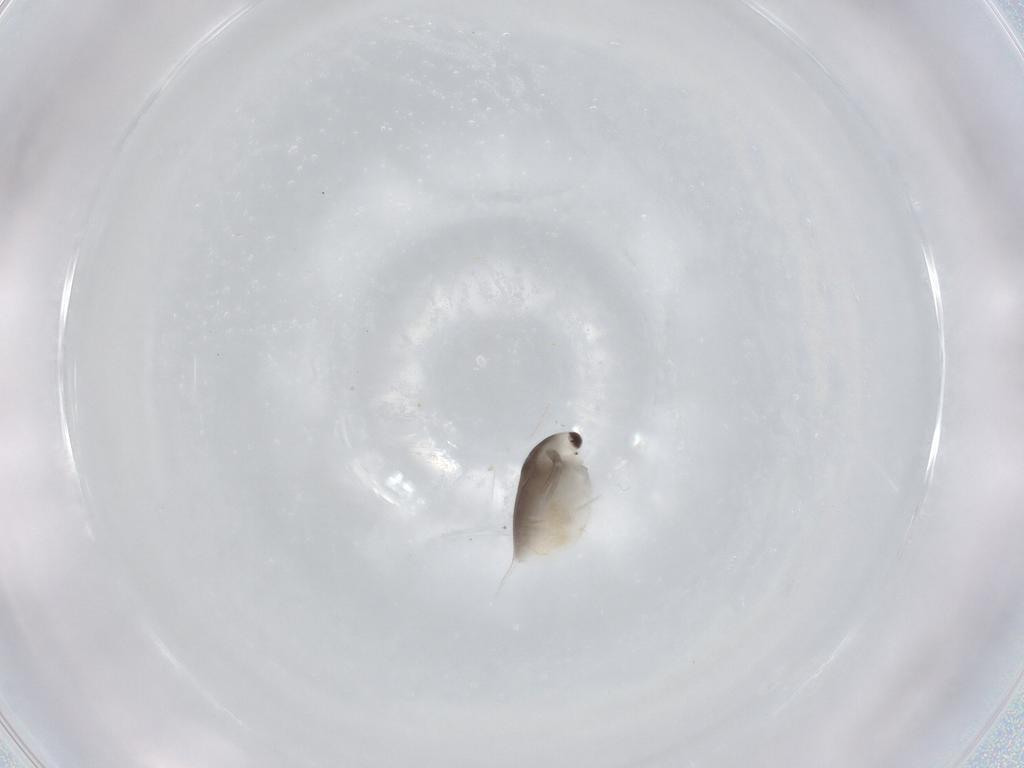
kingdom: Animalia
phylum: Arthropoda
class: Branchiopoda
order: Diplostraca
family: Daphniidae
